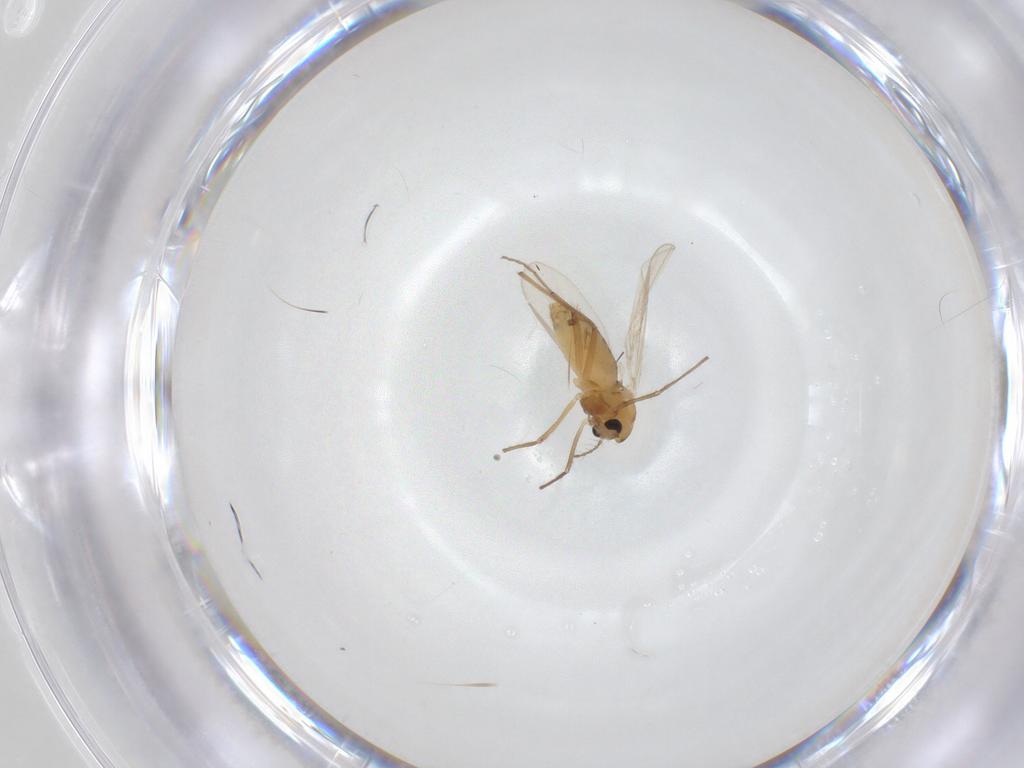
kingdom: Animalia
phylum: Arthropoda
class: Insecta
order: Diptera
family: Chironomidae
